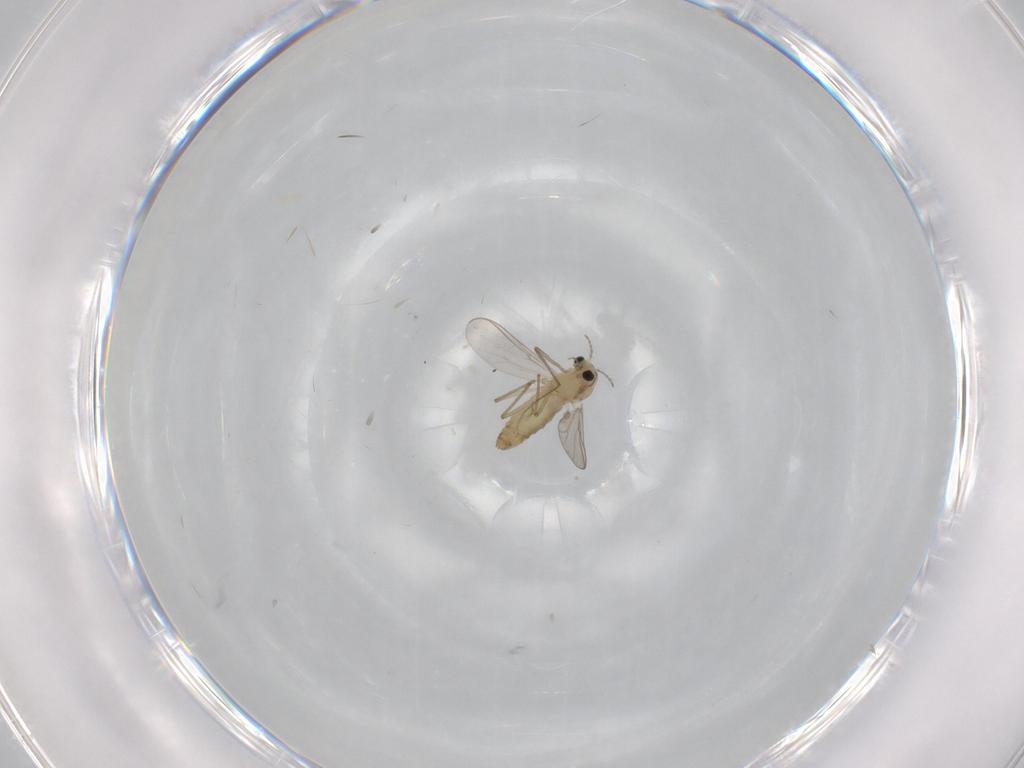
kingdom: Animalia
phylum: Arthropoda
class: Insecta
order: Diptera
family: Chironomidae
